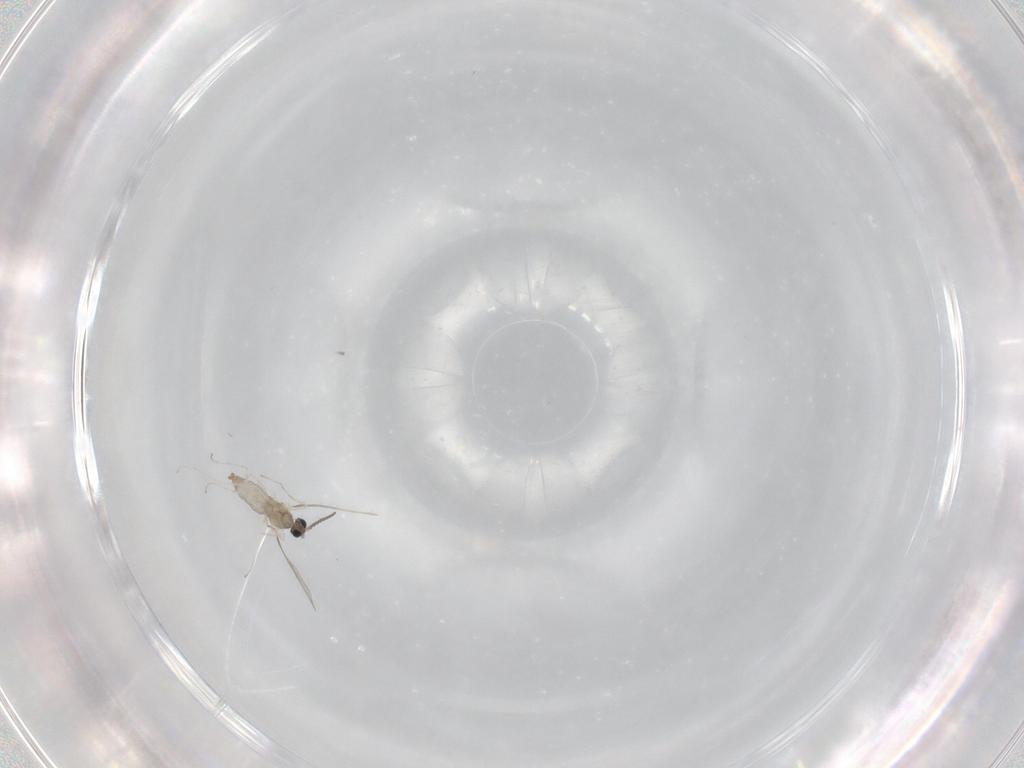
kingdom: Animalia
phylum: Arthropoda
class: Insecta
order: Diptera
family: Cecidomyiidae
